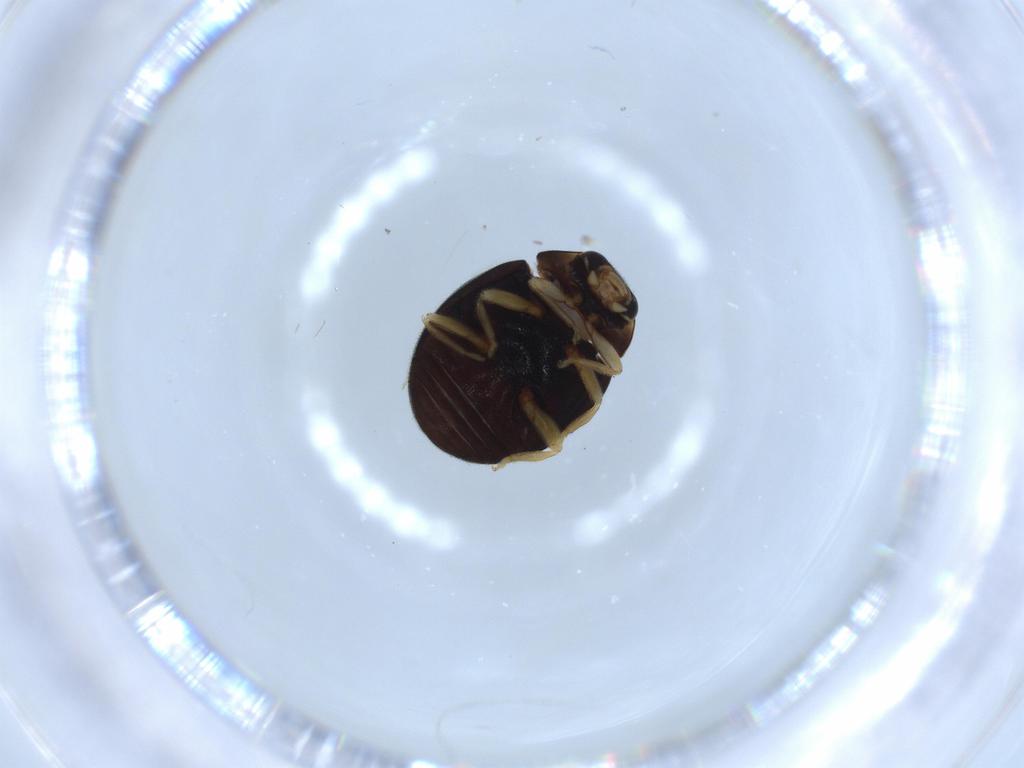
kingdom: Animalia
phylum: Arthropoda
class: Insecta
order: Coleoptera
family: Coccinellidae
